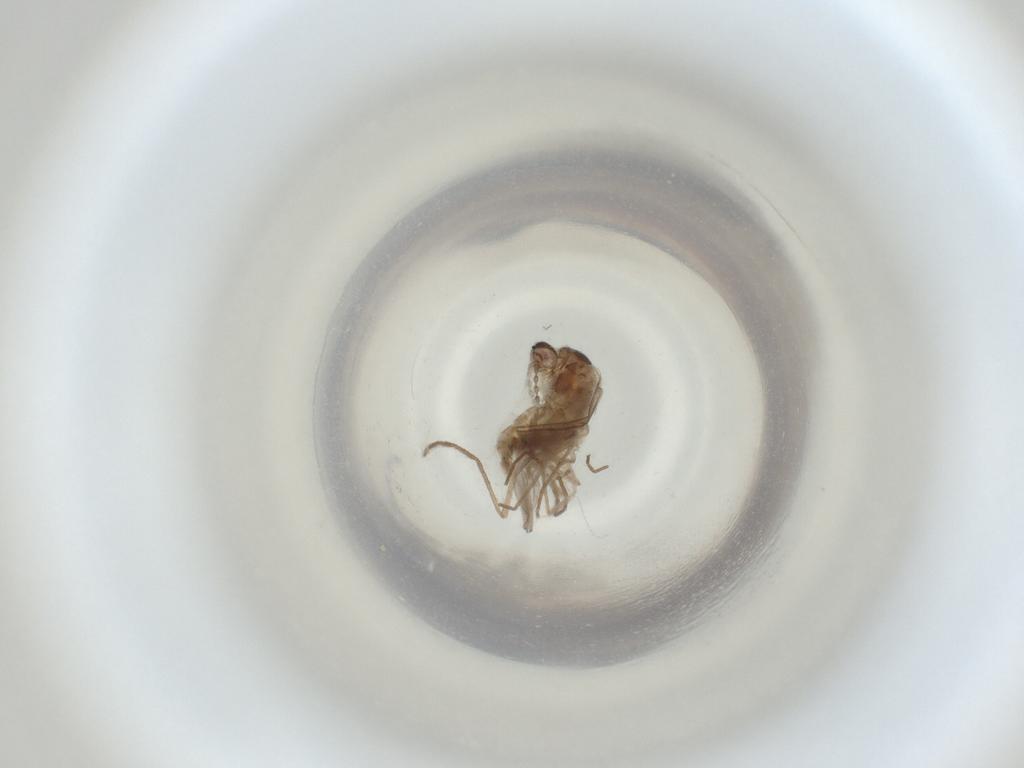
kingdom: Animalia
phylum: Arthropoda
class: Insecta
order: Diptera
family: Cecidomyiidae
